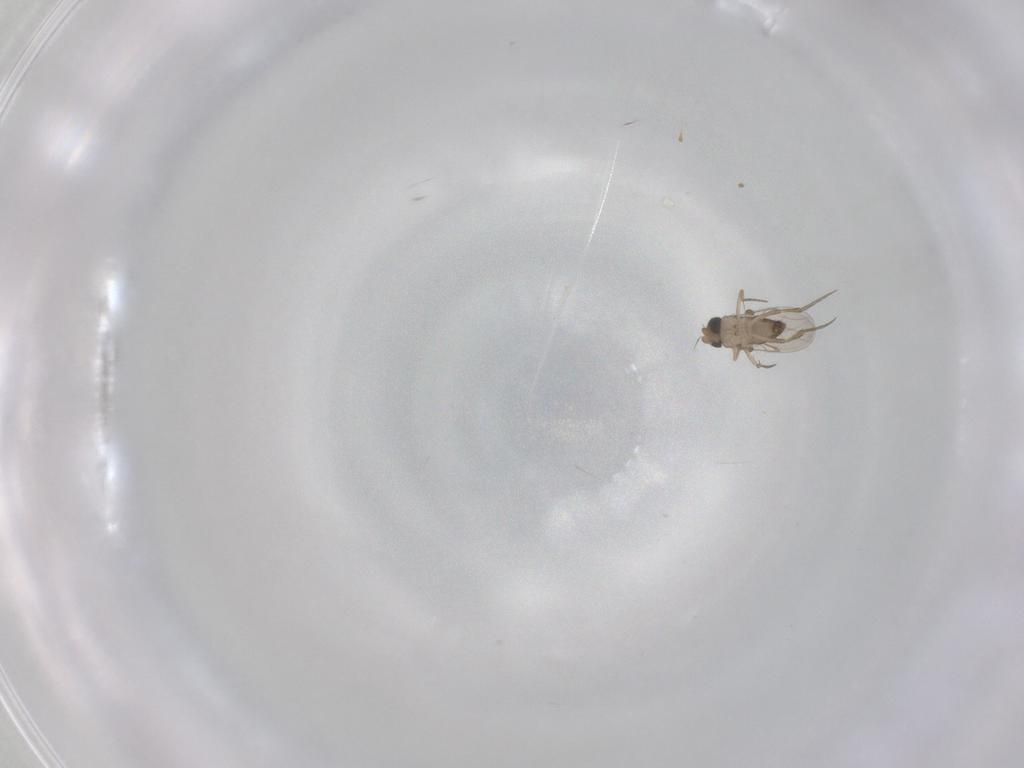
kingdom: Animalia
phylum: Arthropoda
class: Insecta
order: Diptera
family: Phoridae
